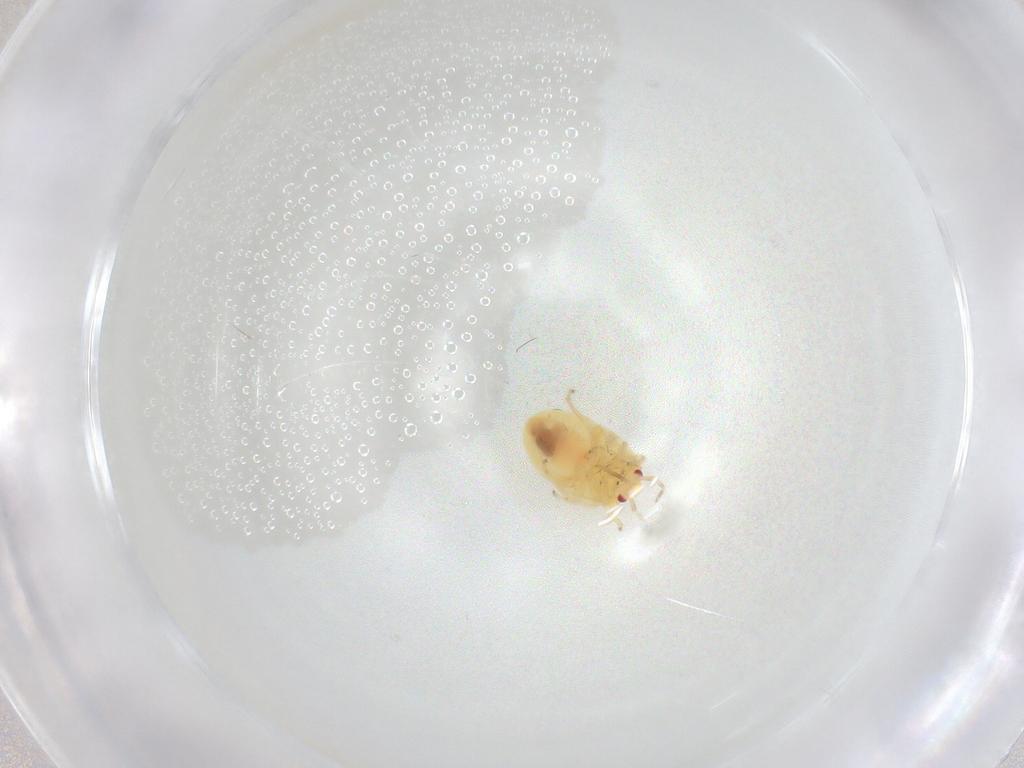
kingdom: Animalia
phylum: Arthropoda
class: Insecta
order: Hemiptera
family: Anthocoridae
